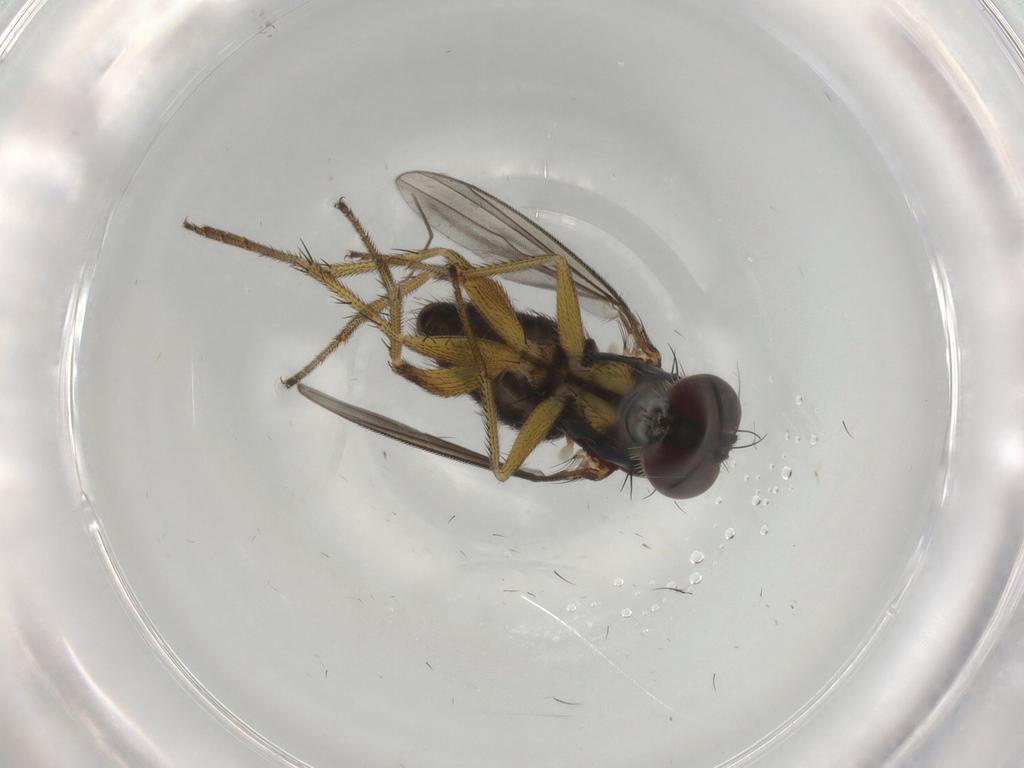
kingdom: Animalia
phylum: Arthropoda
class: Insecta
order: Diptera
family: Dolichopodidae
